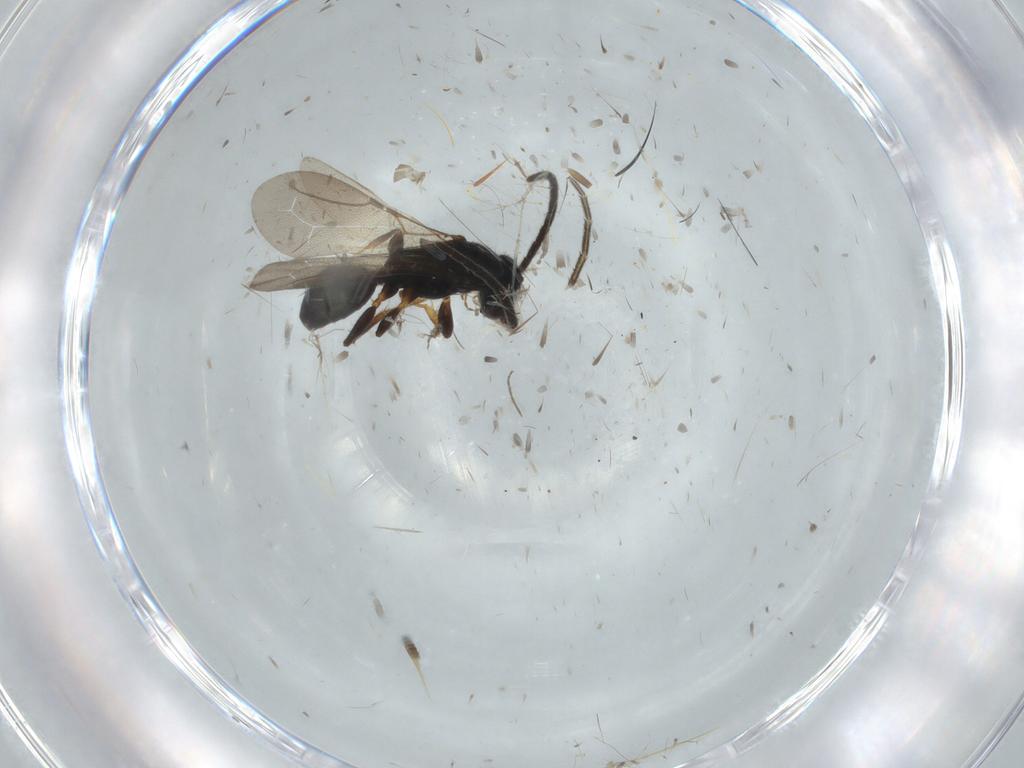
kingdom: Animalia
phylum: Arthropoda
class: Insecta
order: Hymenoptera
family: Bethylidae
